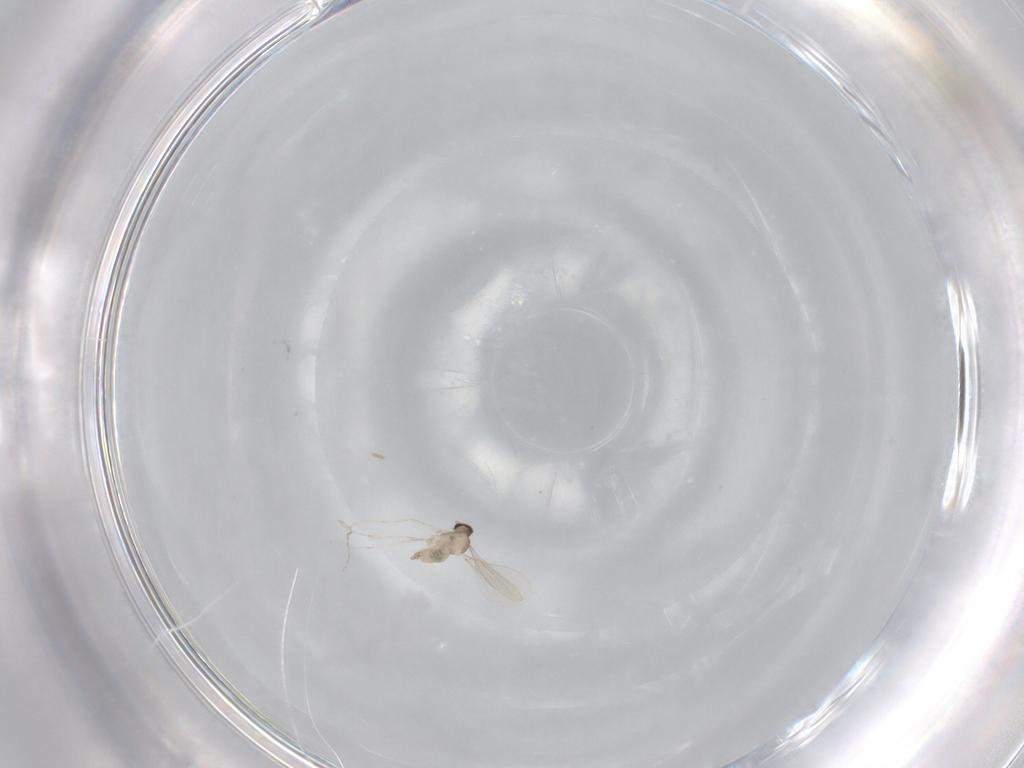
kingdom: Animalia
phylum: Arthropoda
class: Insecta
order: Diptera
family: Cecidomyiidae
